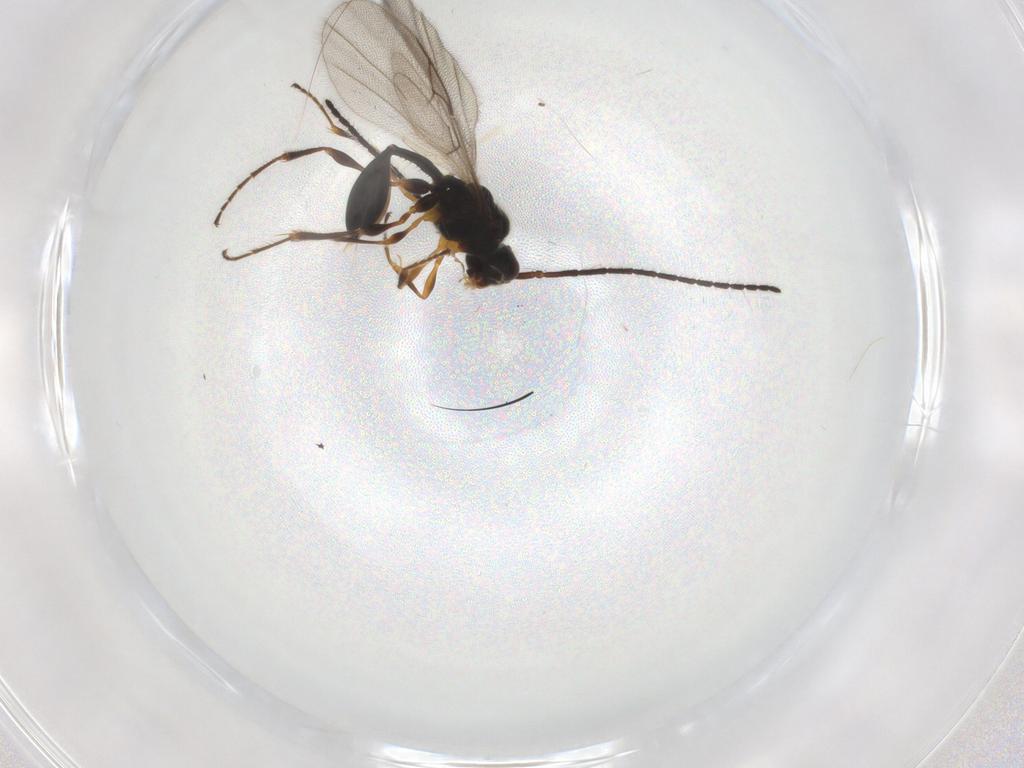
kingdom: Animalia
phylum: Arthropoda
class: Insecta
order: Hymenoptera
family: Diapriidae
